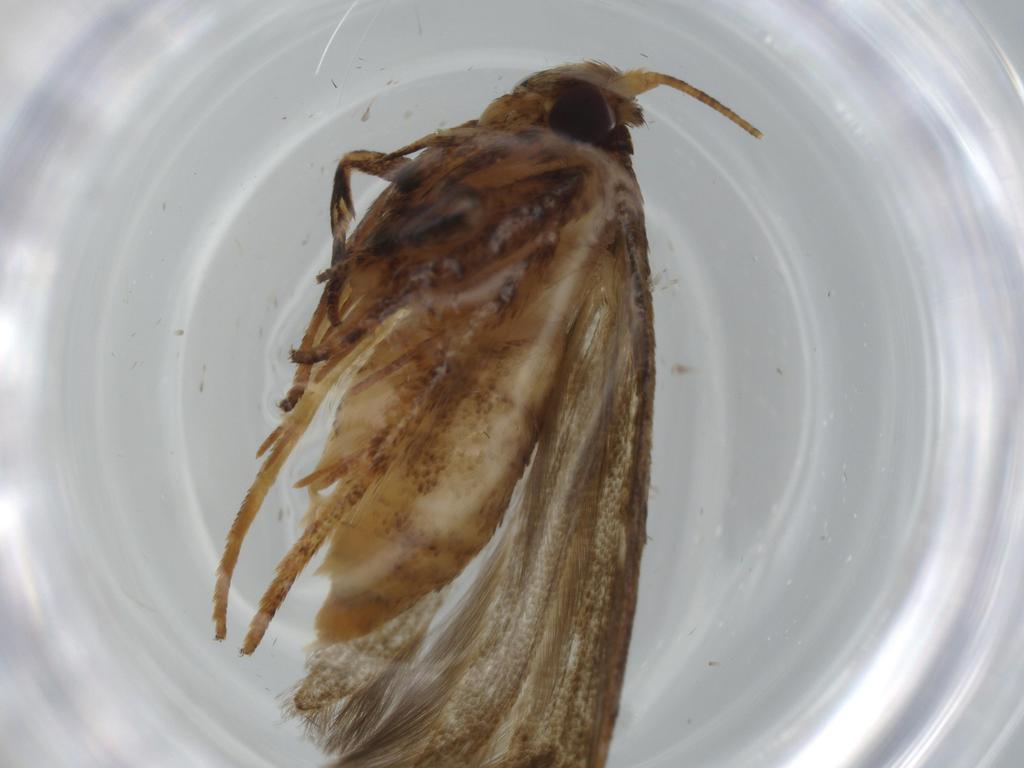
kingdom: Animalia
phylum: Arthropoda
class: Insecta
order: Lepidoptera
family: Tineidae
